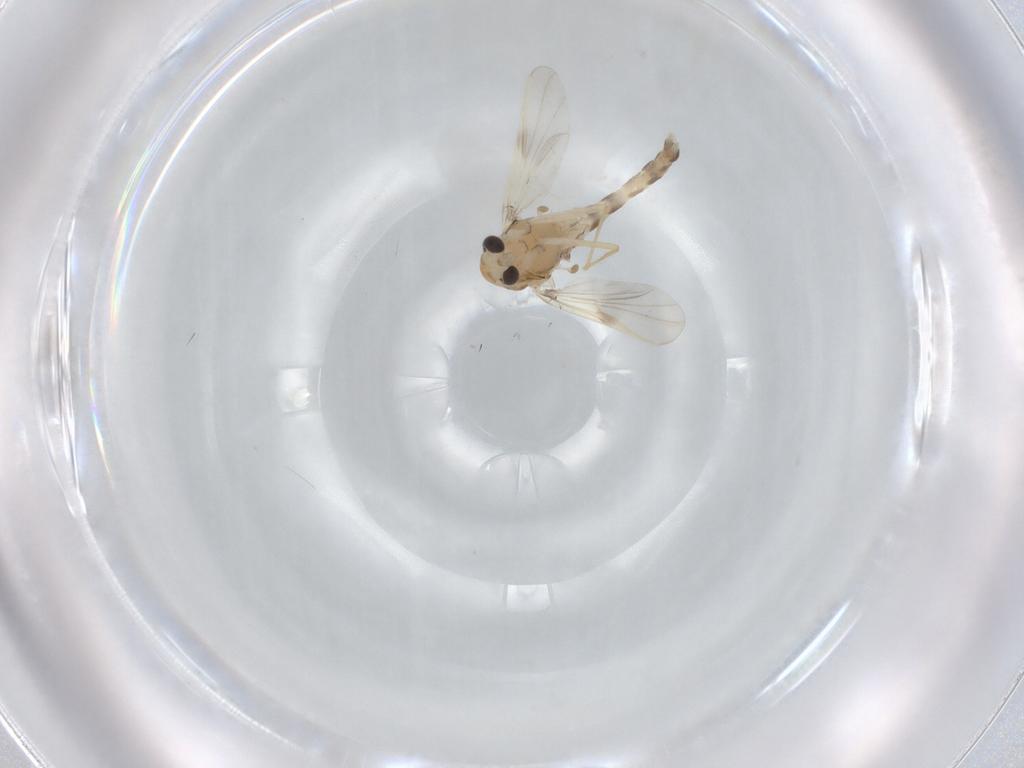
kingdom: Animalia
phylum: Arthropoda
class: Insecta
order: Diptera
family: Chironomidae
